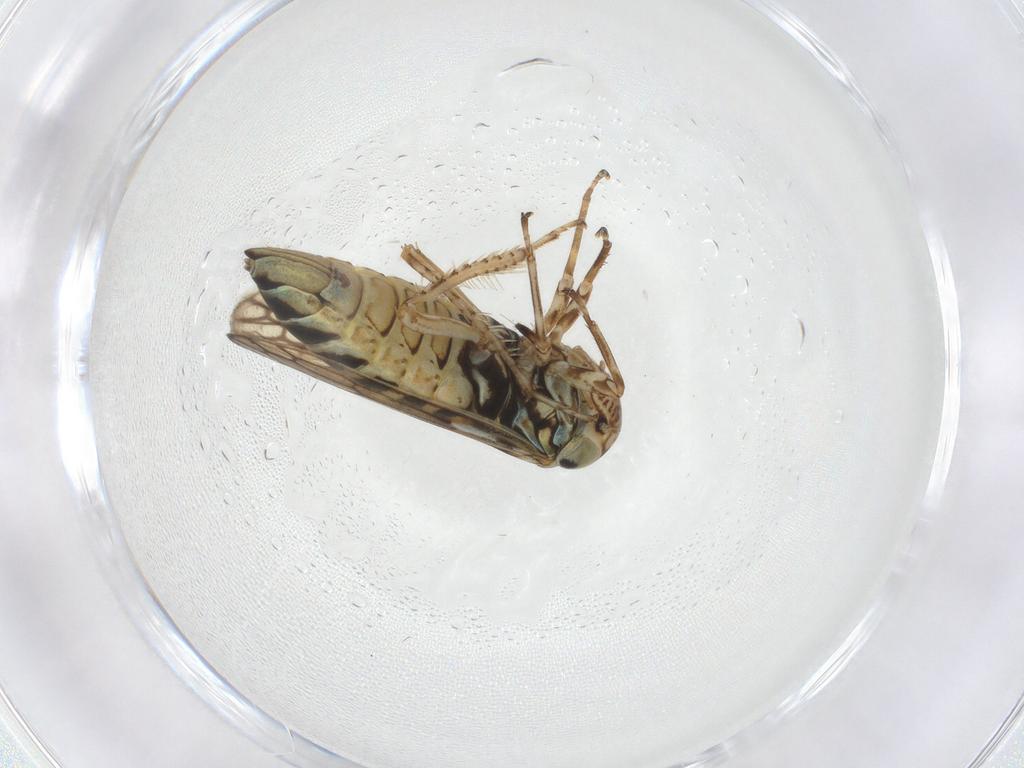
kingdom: Animalia
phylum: Arthropoda
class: Insecta
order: Hemiptera
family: Cicadellidae
